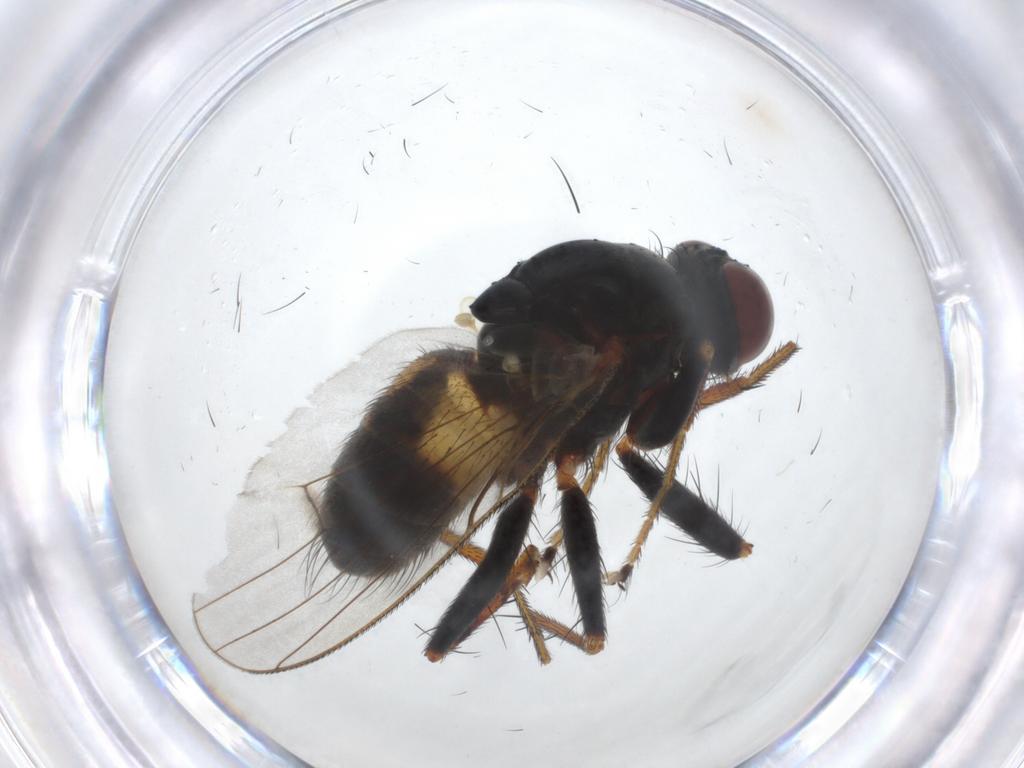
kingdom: Animalia
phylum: Arthropoda
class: Insecta
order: Diptera
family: Muscidae
